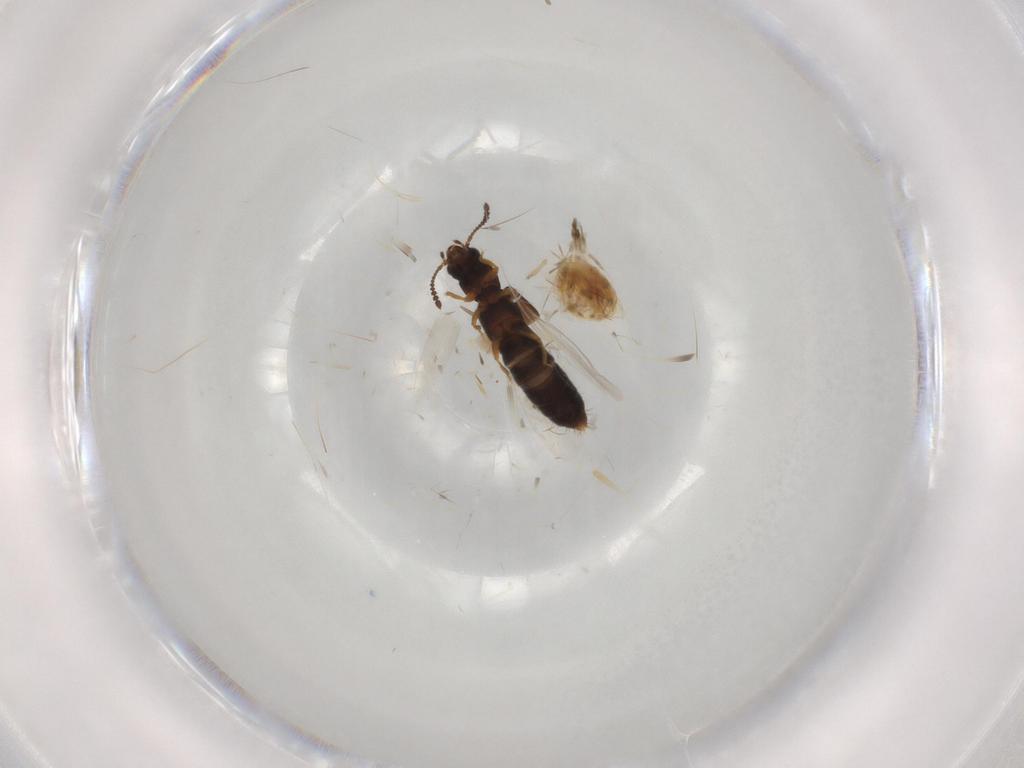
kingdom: Animalia
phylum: Arthropoda
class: Insecta
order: Coleoptera
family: Staphylinidae
